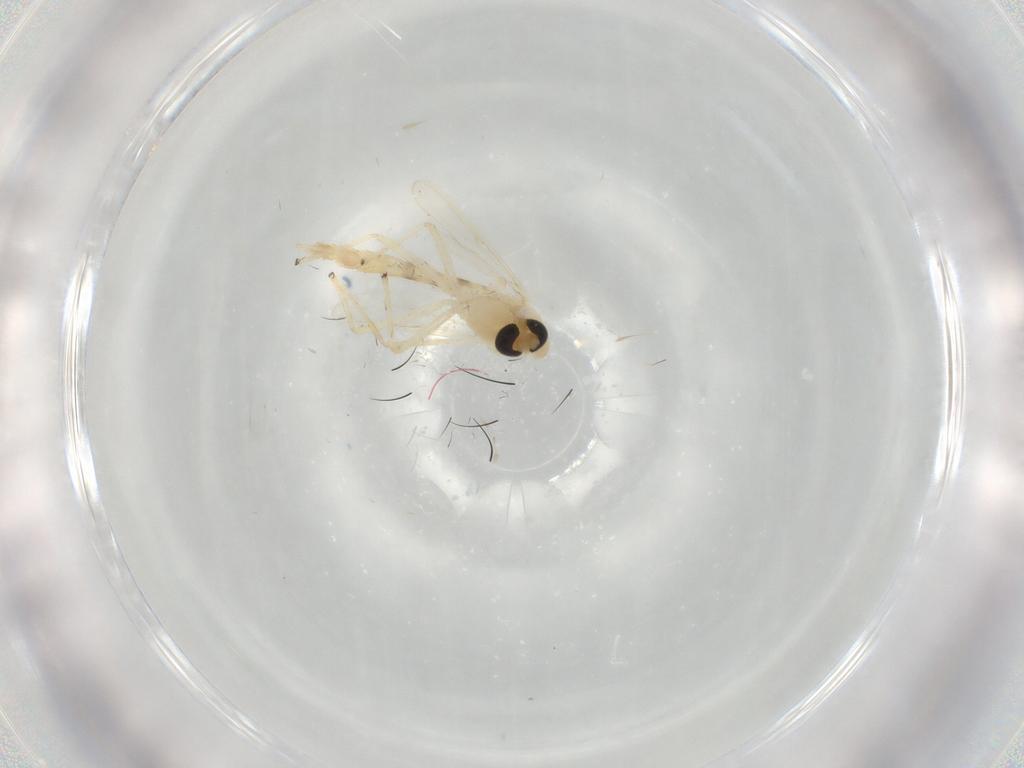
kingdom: Animalia
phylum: Arthropoda
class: Insecta
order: Diptera
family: Chironomidae
